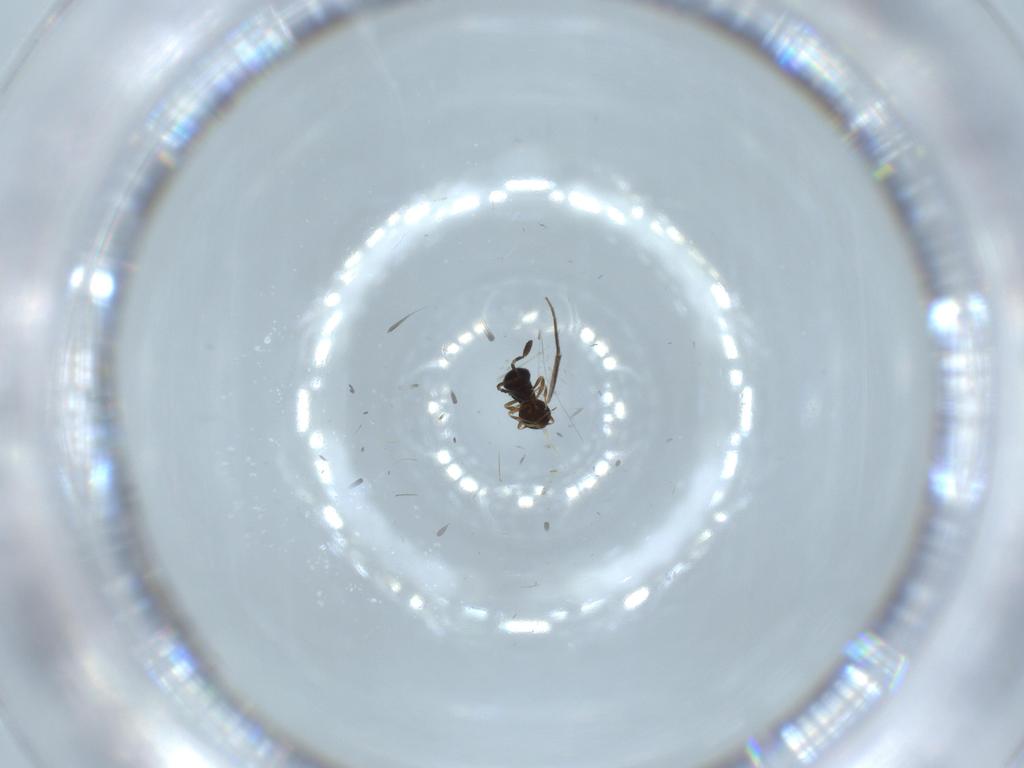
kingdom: Animalia
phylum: Arthropoda
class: Insecta
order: Hymenoptera
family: Scelionidae
